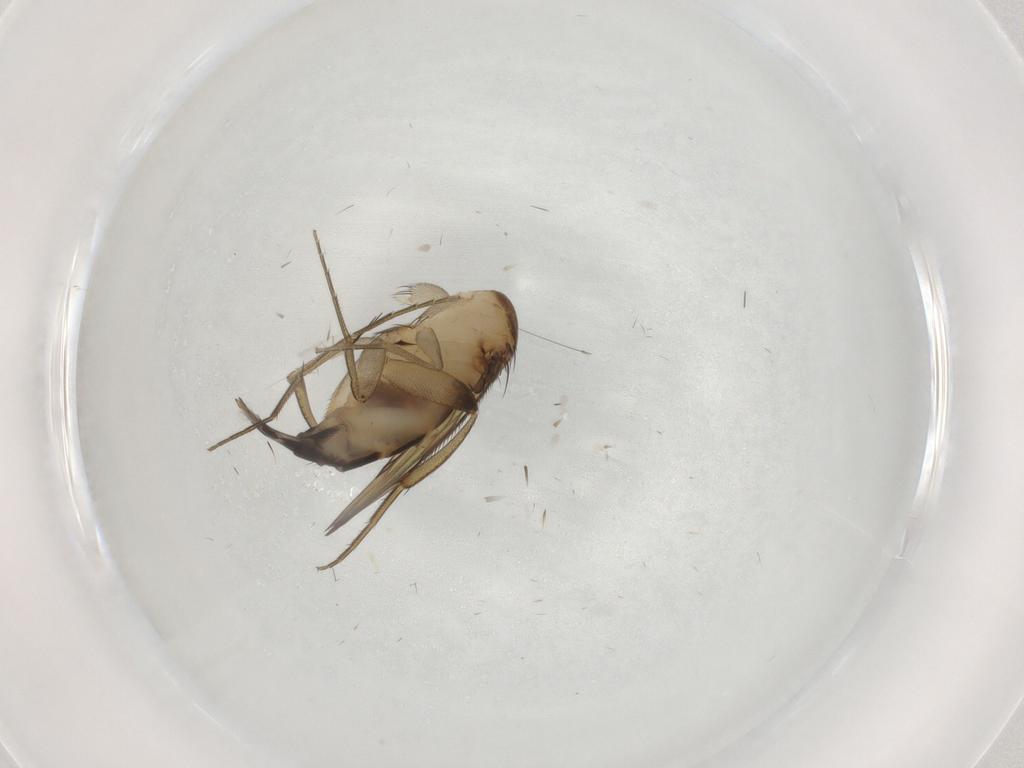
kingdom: Animalia
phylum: Arthropoda
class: Insecta
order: Diptera
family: Phoridae
